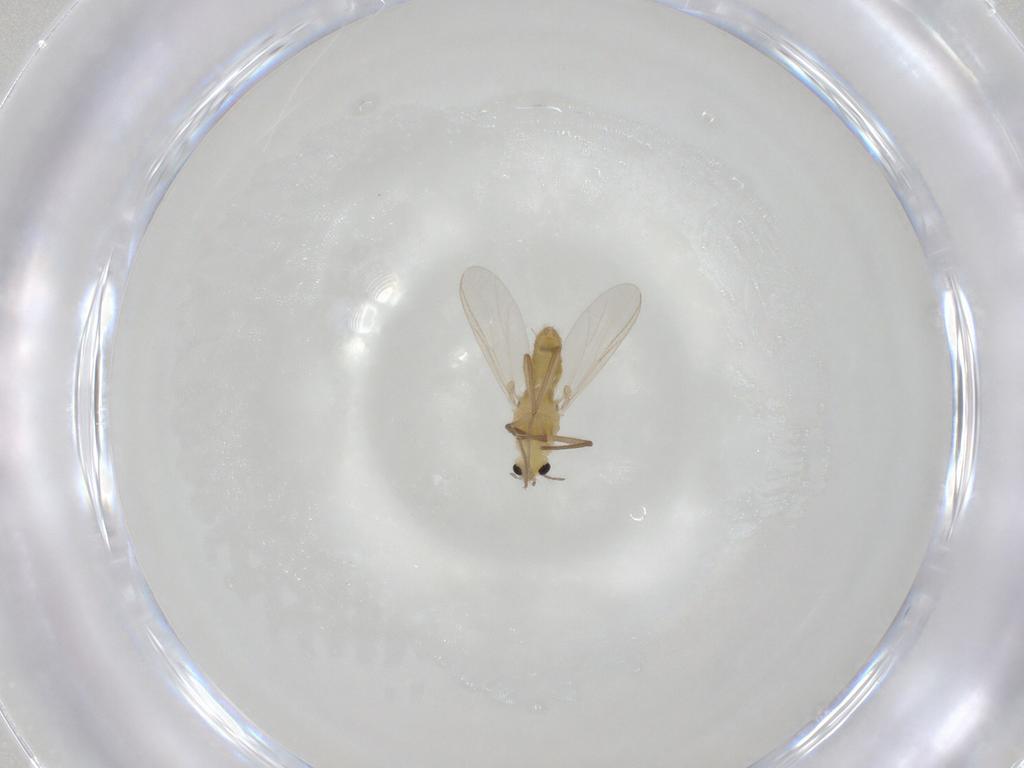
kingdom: Animalia
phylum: Arthropoda
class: Insecta
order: Diptera
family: Chironomidae
